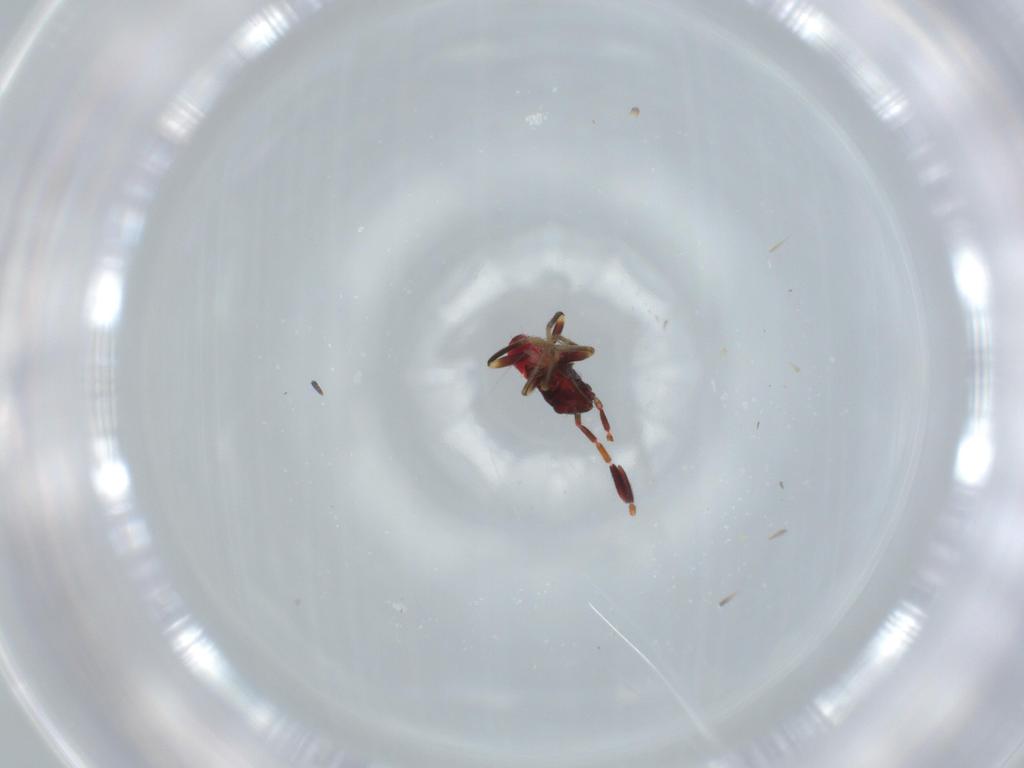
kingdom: Animalia
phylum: Arthropoda
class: Insecta
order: Hemiptera
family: Rhyparochromidae
